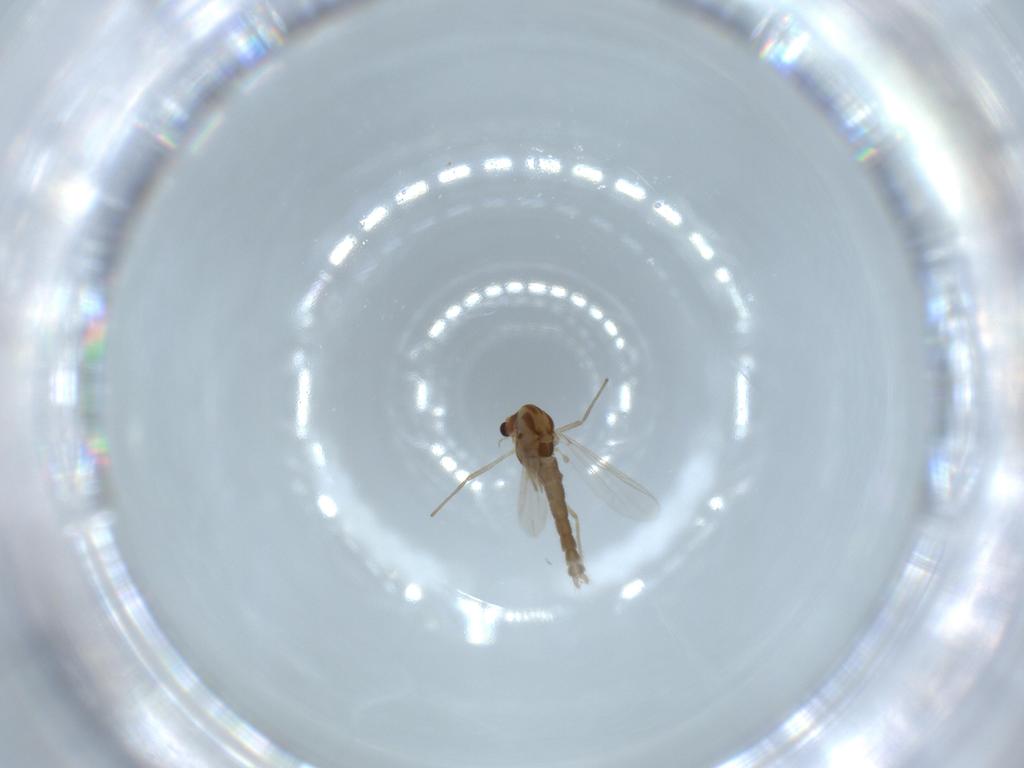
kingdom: Animalia
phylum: Arthropoda
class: Insecta
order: Diptera
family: Chironomidae
